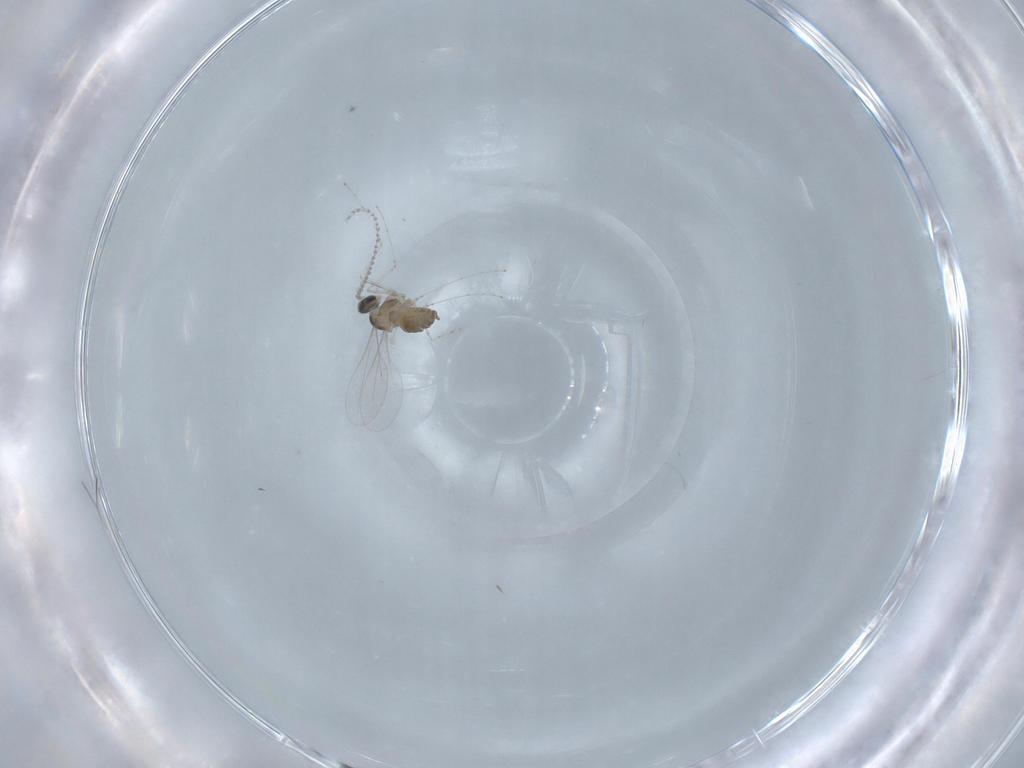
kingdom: Animalia
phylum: Arthropoda
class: Insecta
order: Diptera
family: Cecidomyiidae
